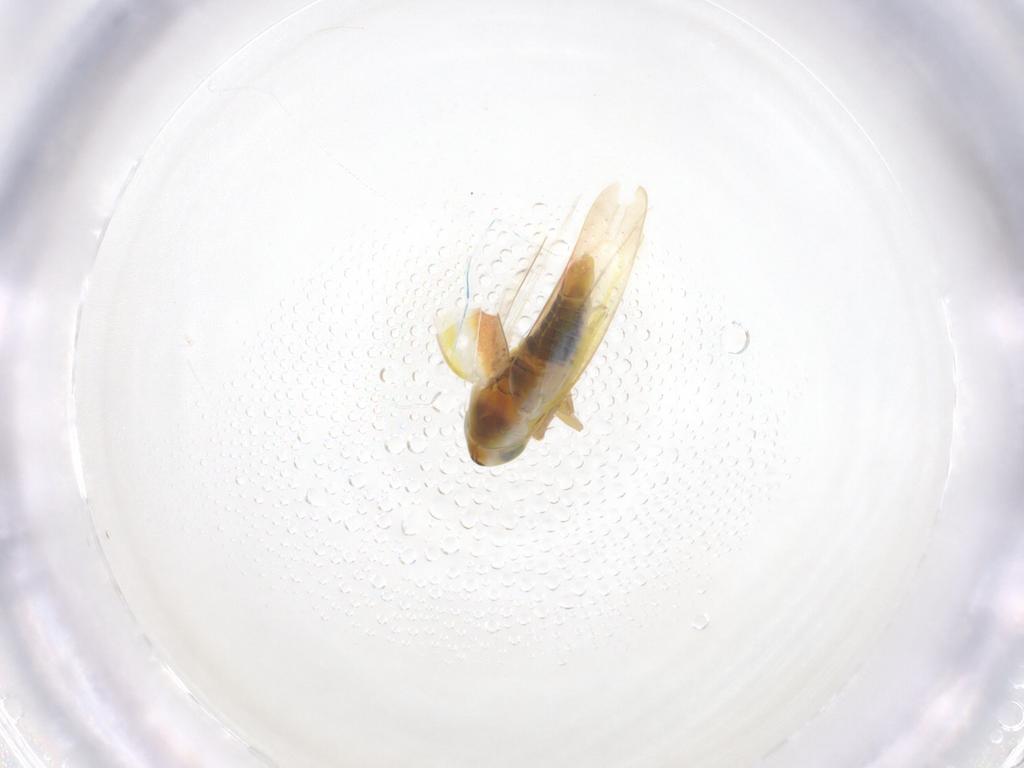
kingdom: Animalia
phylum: Arthropoda
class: Insecta
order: Hemiptera
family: Cicadellidae
